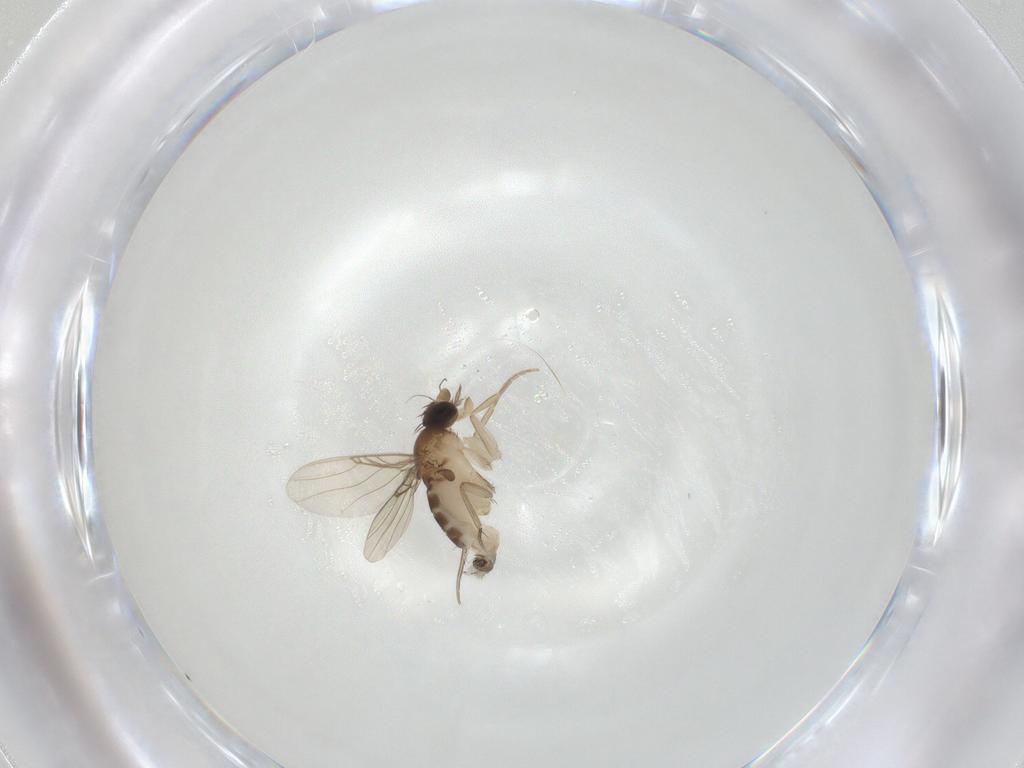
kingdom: Animalia
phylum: Arthropoda
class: Insecta
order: Diptera
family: Phoridae
